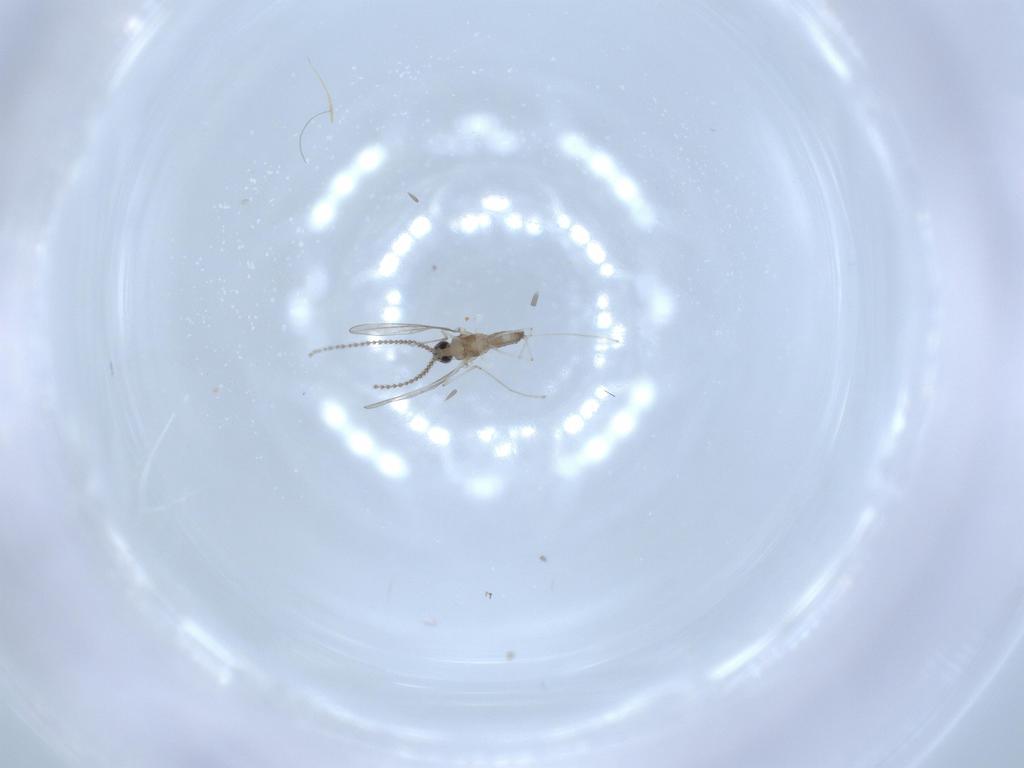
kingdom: Animalia
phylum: Arthropoda
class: Insecta
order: Diptera
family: Cecidomyiidae
